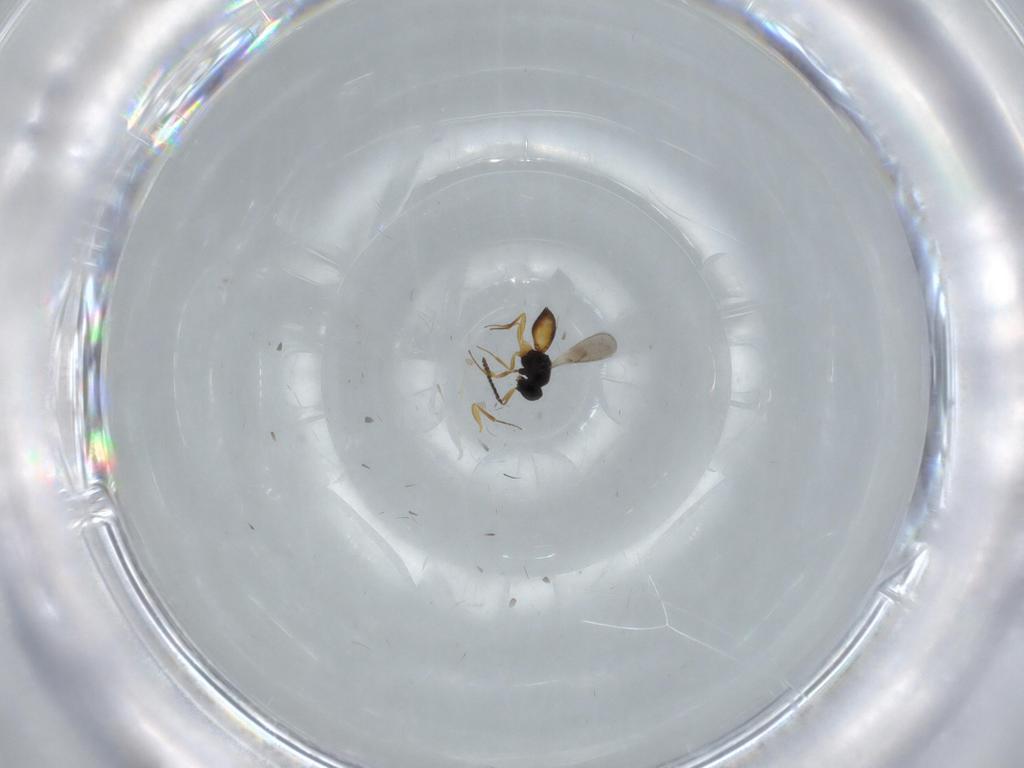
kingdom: Animalia
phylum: Arthropoda
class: Insecta
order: Hymenoptera
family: Scelionidae
